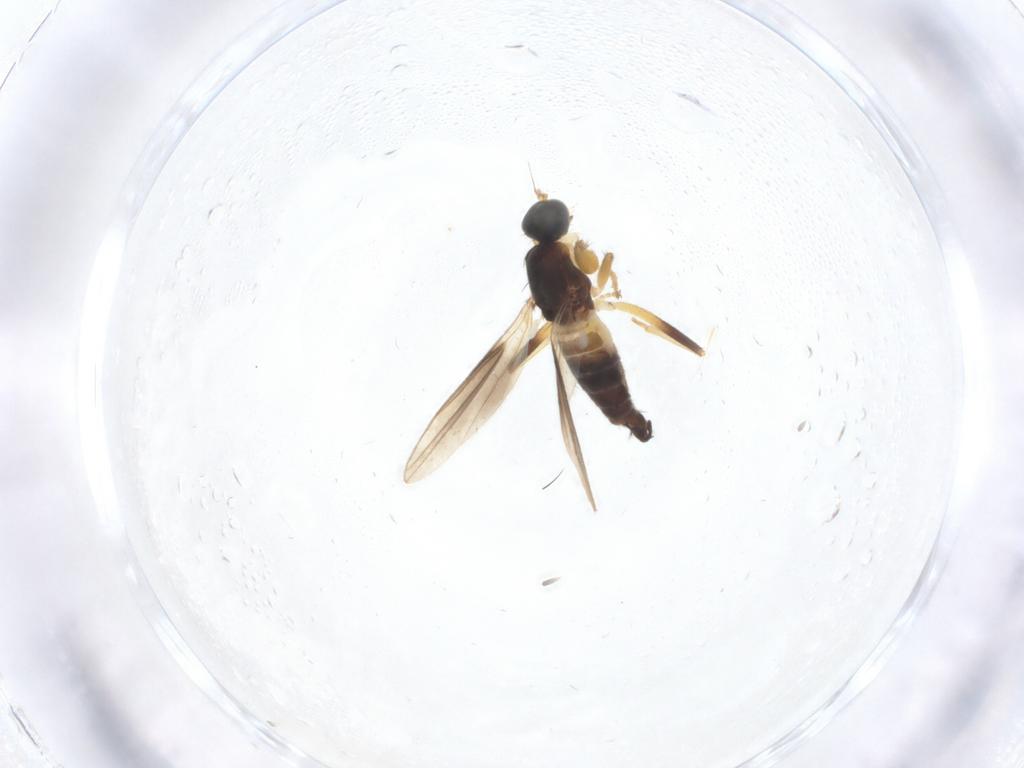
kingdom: Animalia
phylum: Arthropoda
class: Insecta
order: Diptera
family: Hybotidae
